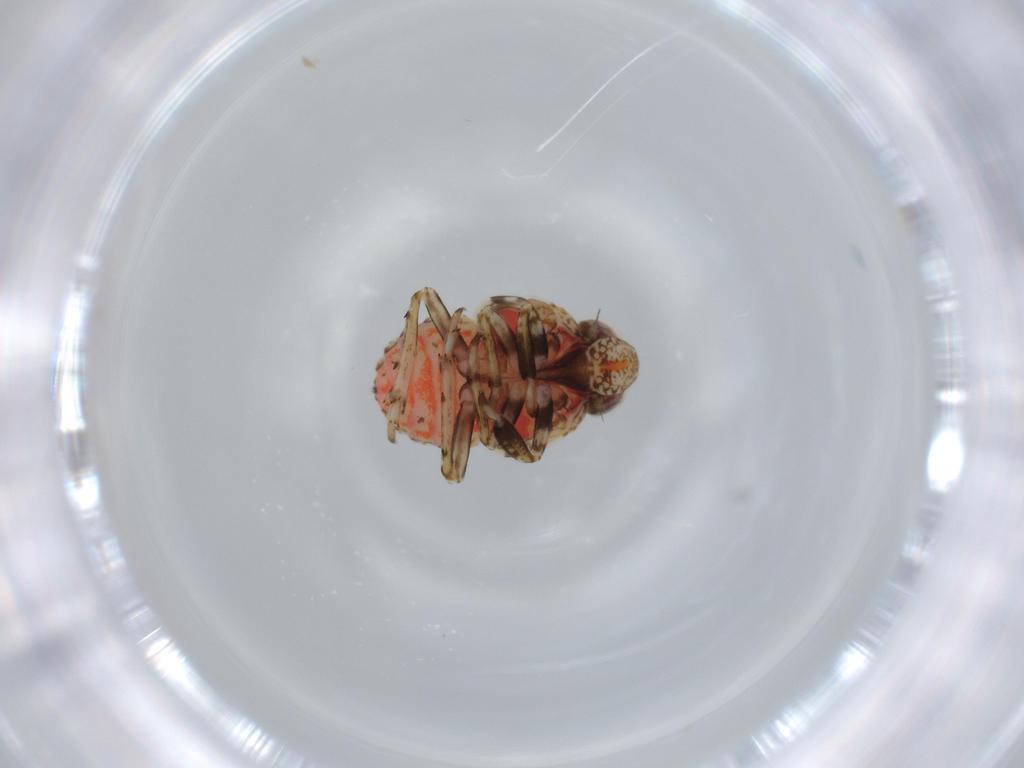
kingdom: Animalia
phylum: Arthropoda
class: Insecta
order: Hemiptera
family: Issidae
